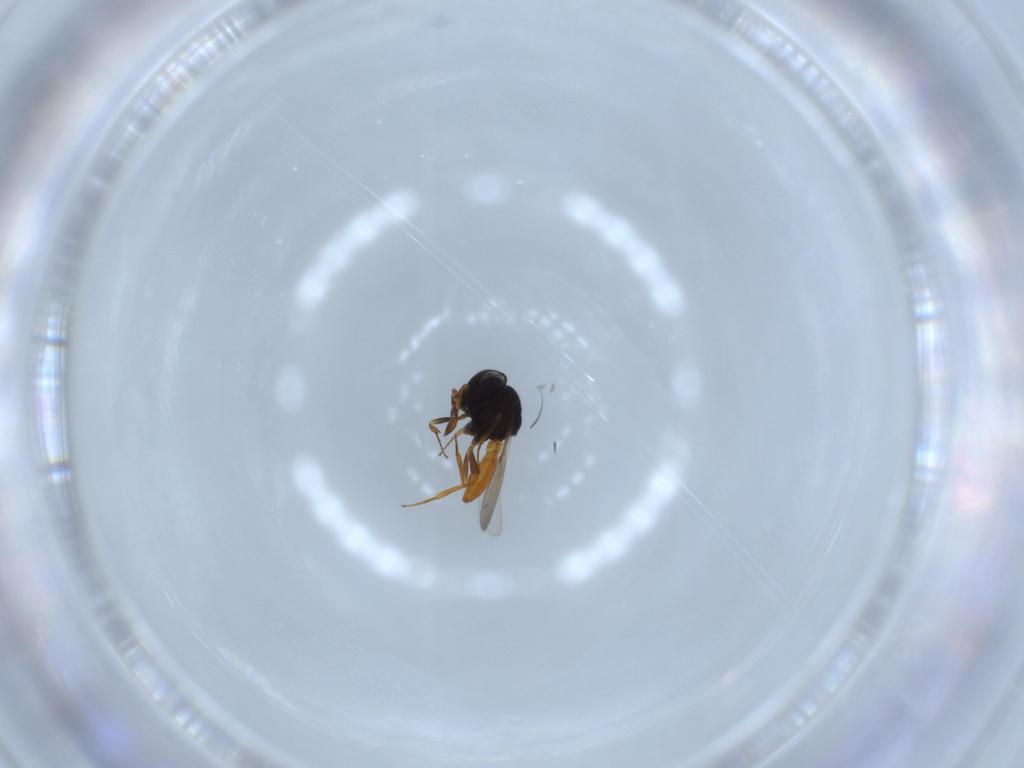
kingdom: Animalia
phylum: Arthropoda
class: Insecta
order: Hymenoptera
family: Scelionidae
